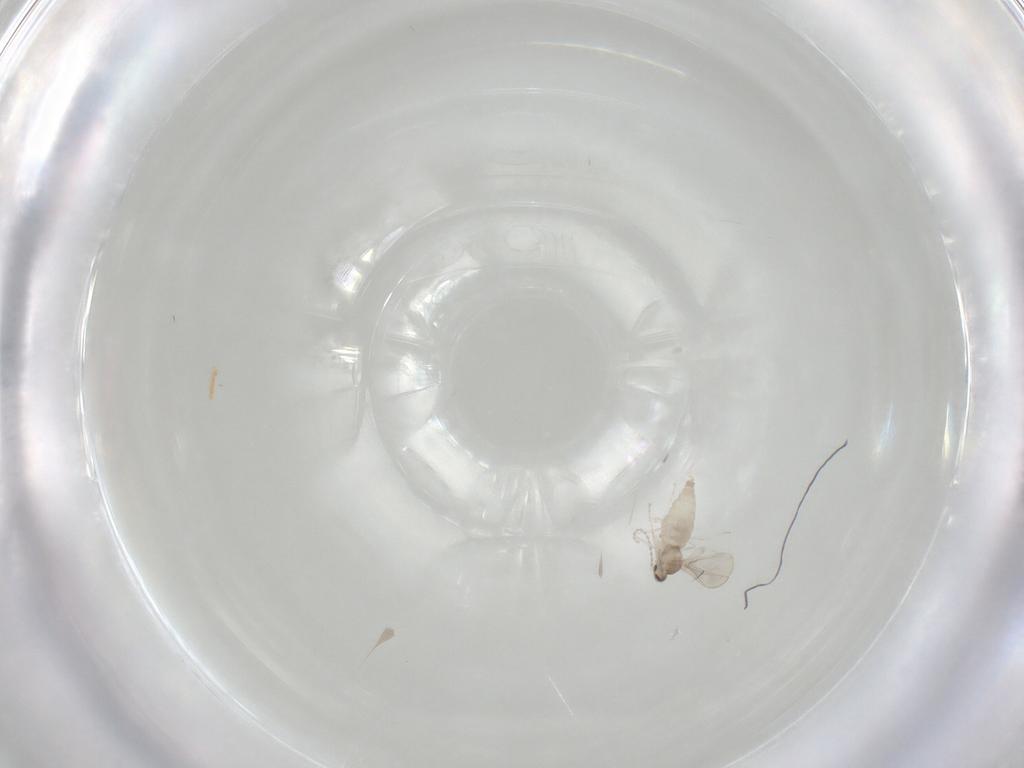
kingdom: Animalia
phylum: Arthropoda
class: Insecta
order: Diptera
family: Cecidomyiidae
